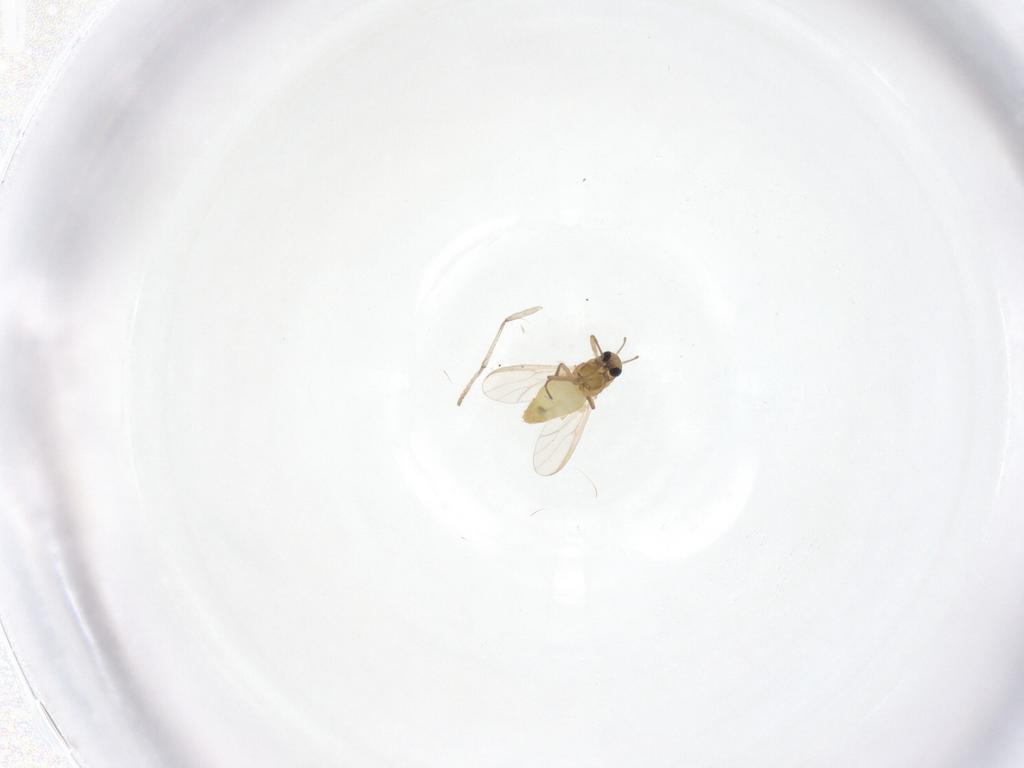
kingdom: Animalia
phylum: Arthropoda
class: Insecta
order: Diptera
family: Chironomidae
